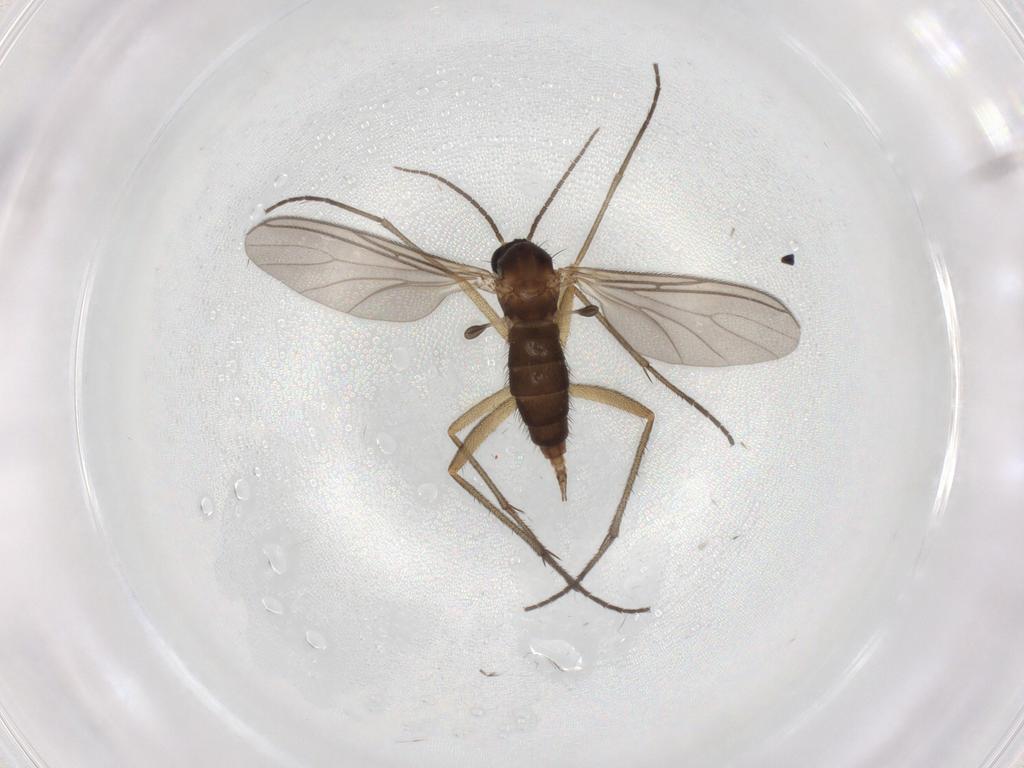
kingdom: Animalia
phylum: Arthropoda
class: Insecta
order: Diptera
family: Sciaridae
